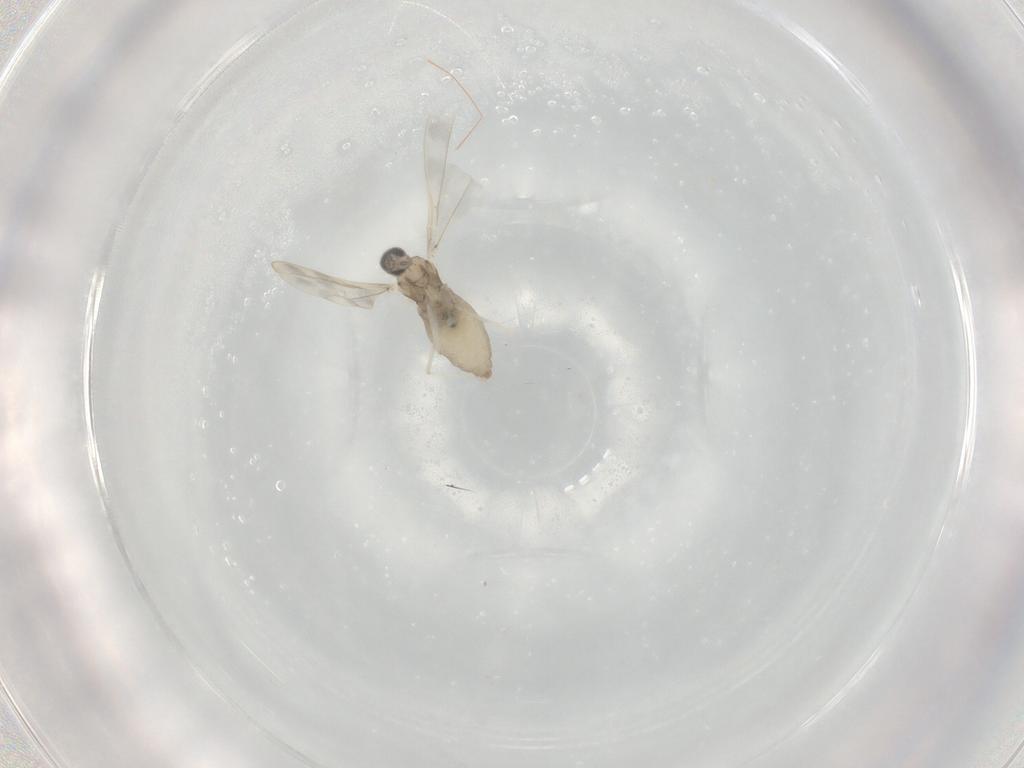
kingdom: Animalia
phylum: Arthropoda
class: Insecta
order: Diptera
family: Cecidomyiidae
